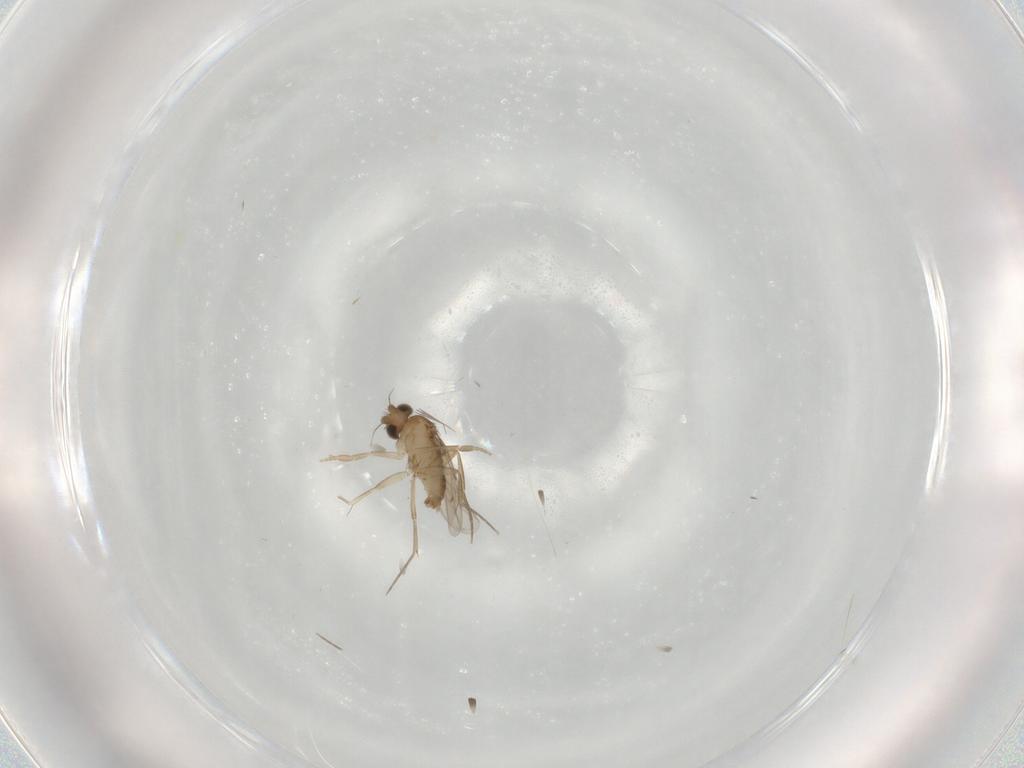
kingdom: Animalia
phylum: Arthropoda
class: Insecta
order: Diptera
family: Phoridae
